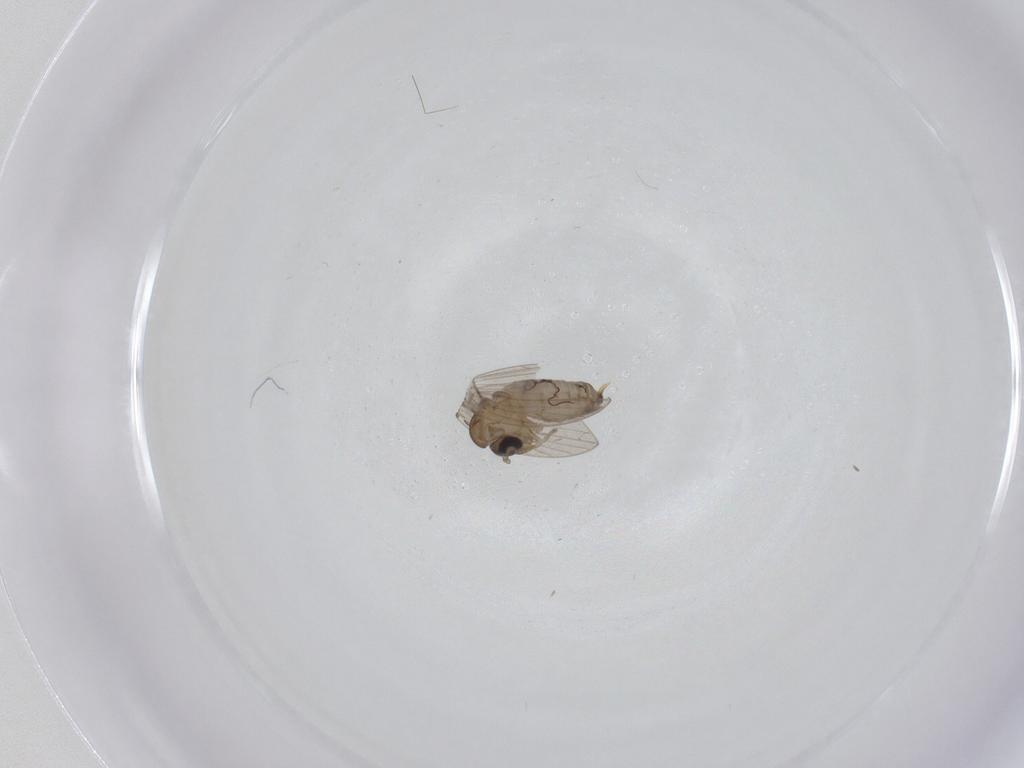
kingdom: Animalia
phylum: Arthropoda
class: Insecta
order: Diptera
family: Psychodidae
